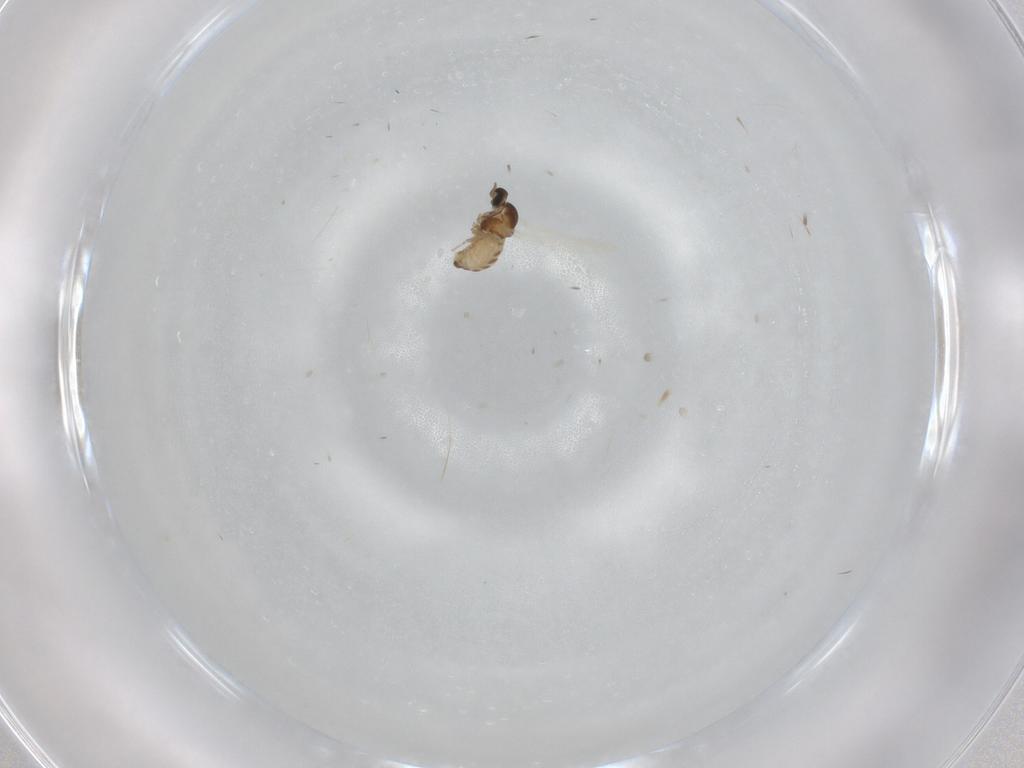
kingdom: Animalia
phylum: Arthropoda
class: Insecta
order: Diptera
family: Cecidomyiidae
